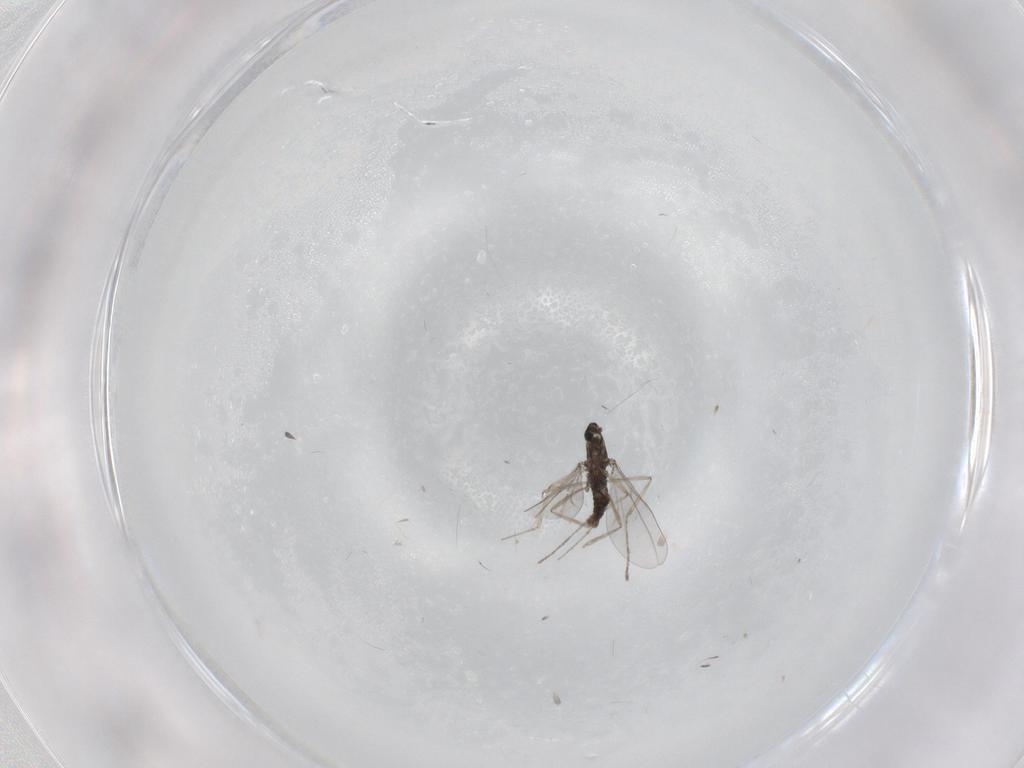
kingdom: Animalia
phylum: Arthropoda
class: Insecta
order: Diptera
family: Cecidomyiidae
